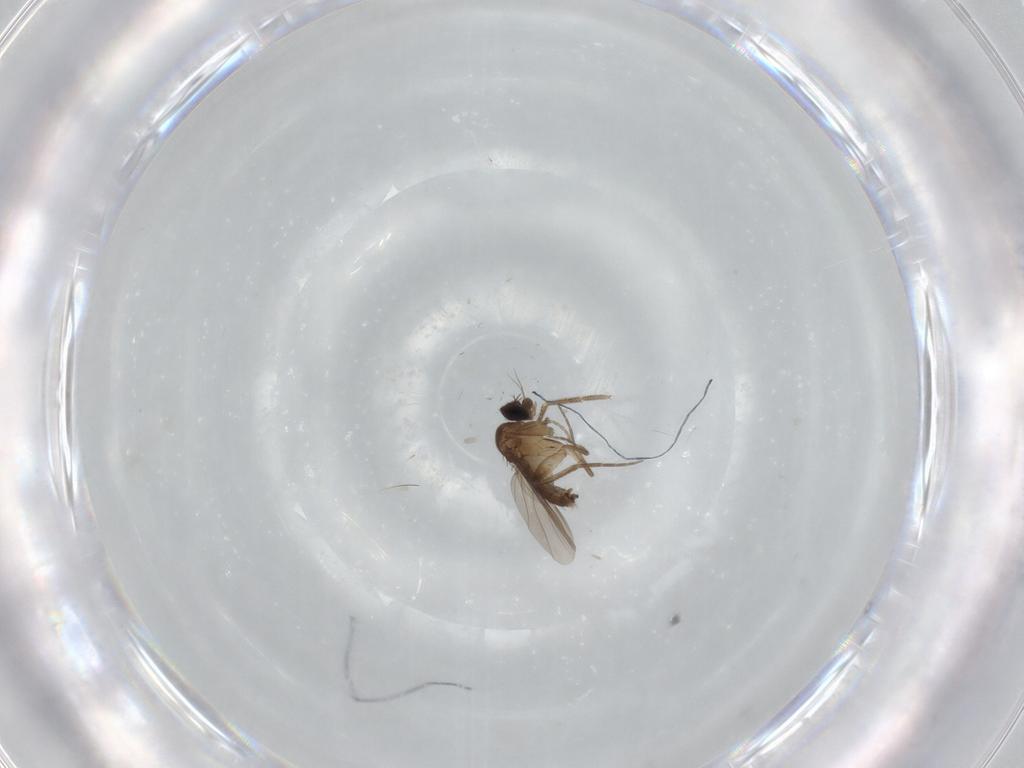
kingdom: Animalia
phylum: Arthropoda
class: Insecta
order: Diptera
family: Phoridae
